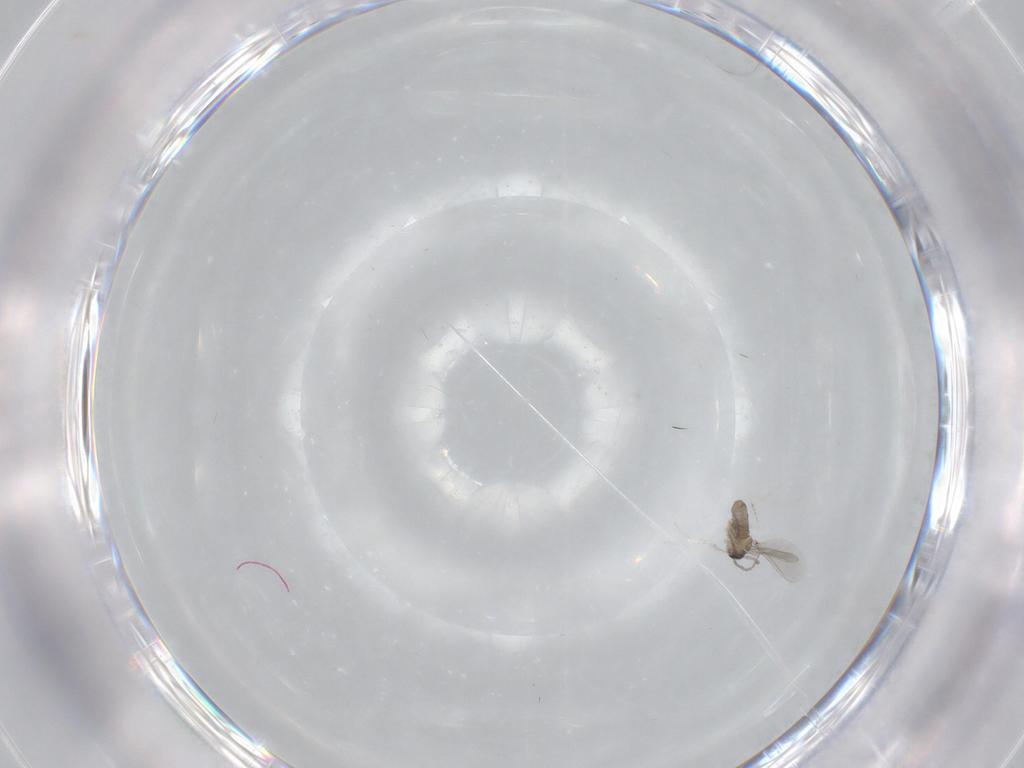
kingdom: Animalia
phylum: Arthropoda
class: Insecta
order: Diptera
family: Cecidomyiidae
